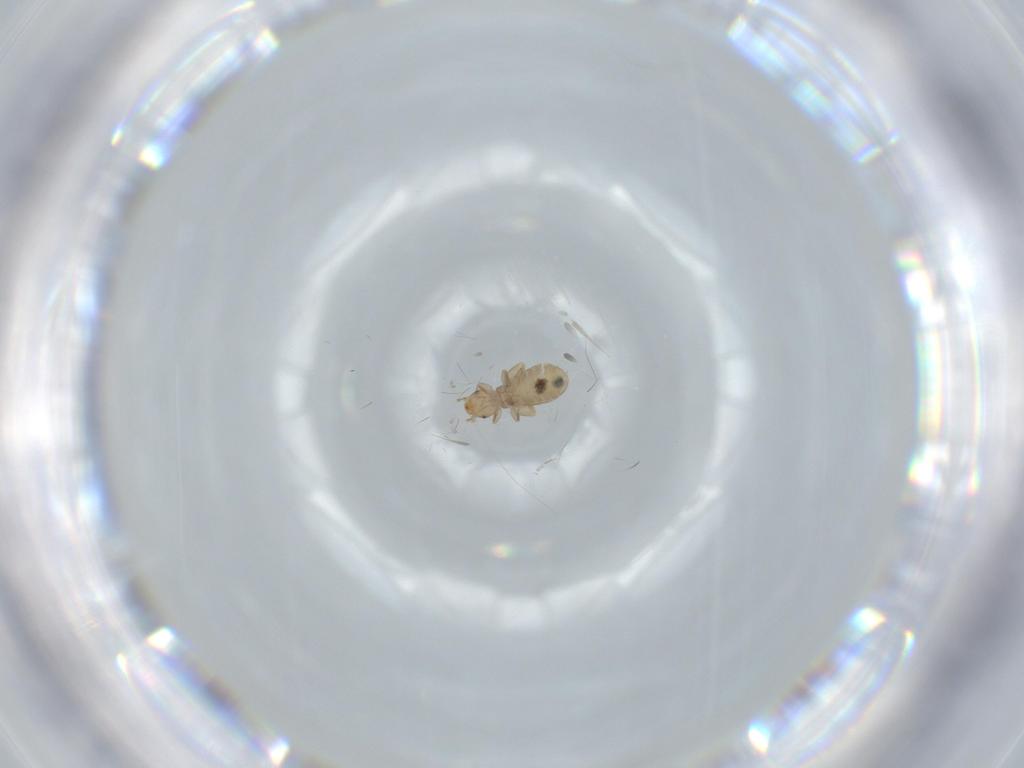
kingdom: Animalia
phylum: Arthropoda
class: Insecta
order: Psocodea
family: Liposcelididae
